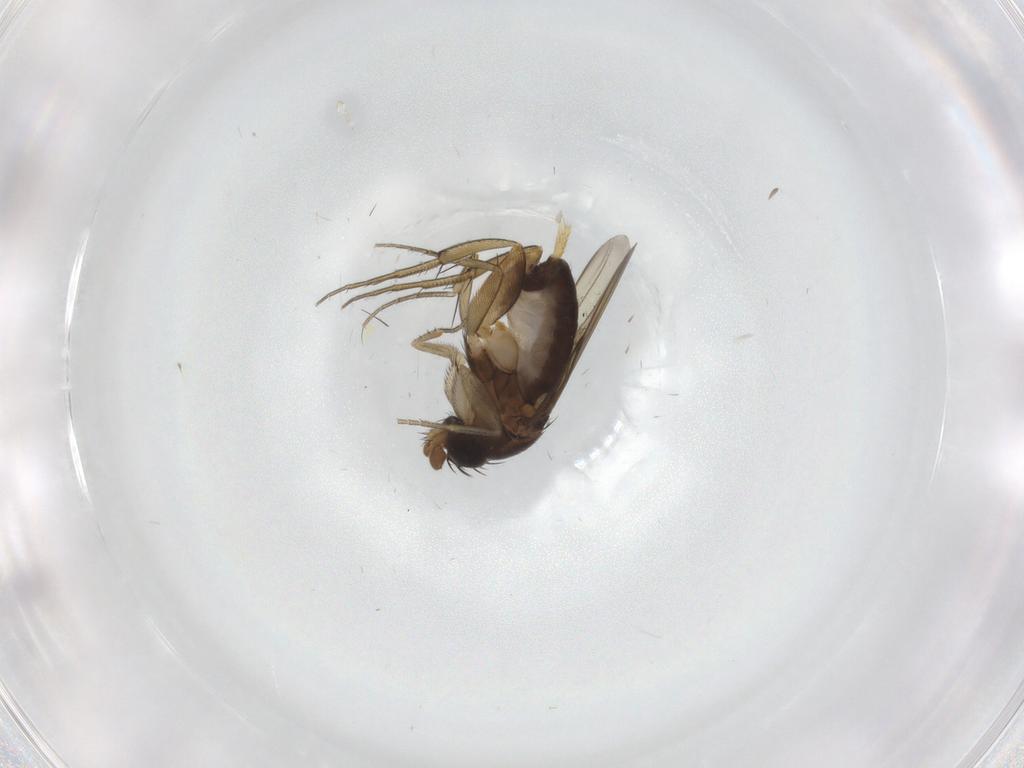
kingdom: Animalia
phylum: Arthropoda
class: Insecta
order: Diptera
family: Phoridae
